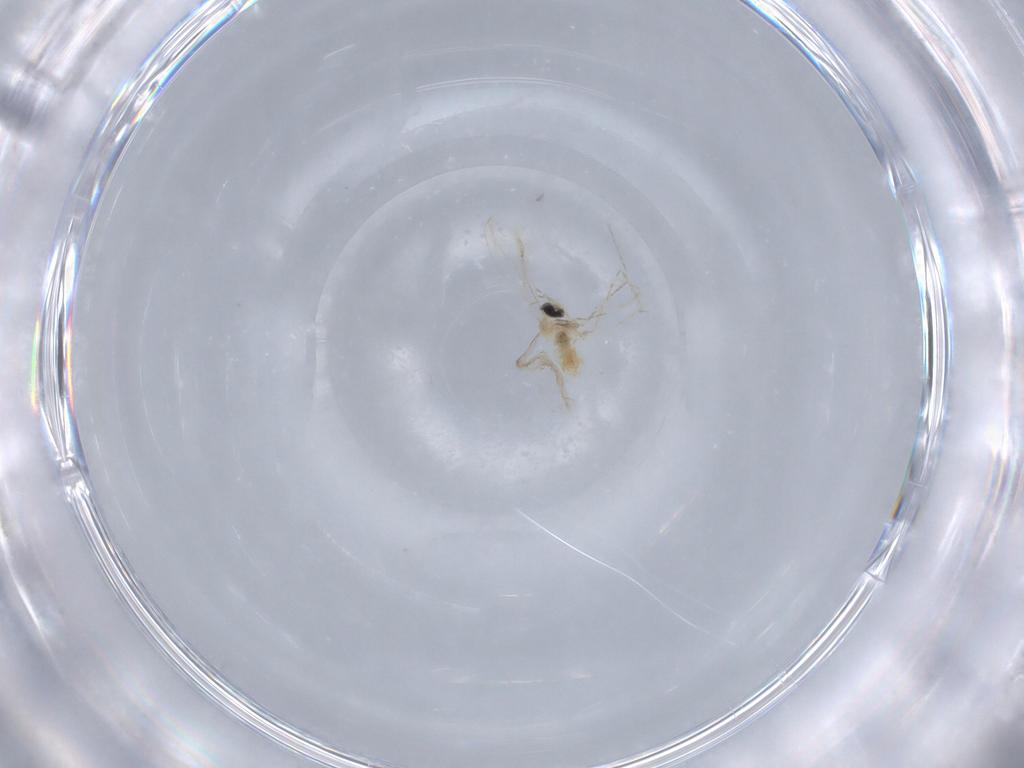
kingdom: Animalia
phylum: Arthropoda
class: Insecta
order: Diptera
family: Cecidomyiidae
